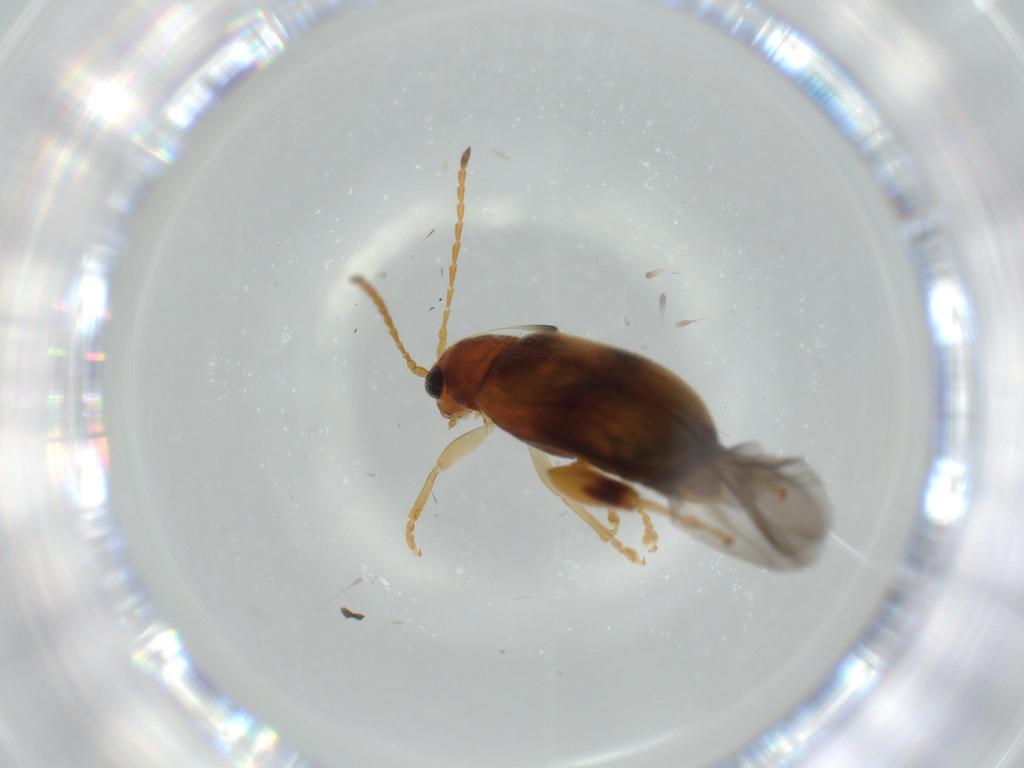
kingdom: Animalia
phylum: Arthropoda
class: Insecta
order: Coleoptera
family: Chrysomelidae
